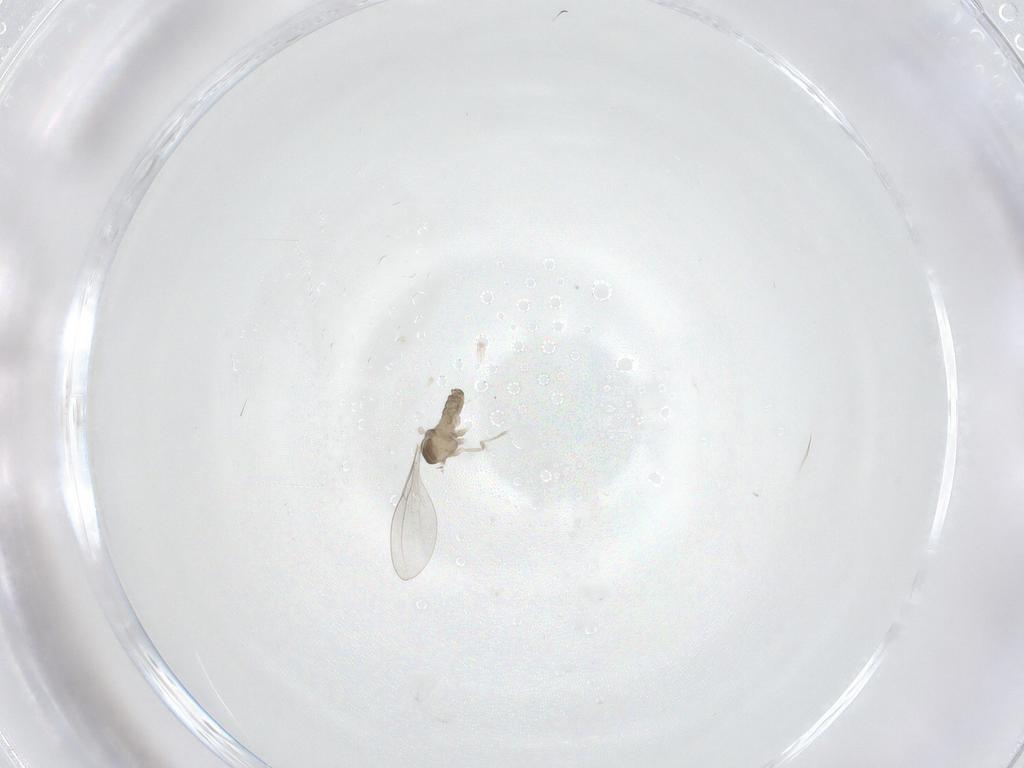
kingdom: Animalia
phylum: Arthropoda
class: Insecta
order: Diptera
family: Cecidomyiidae
